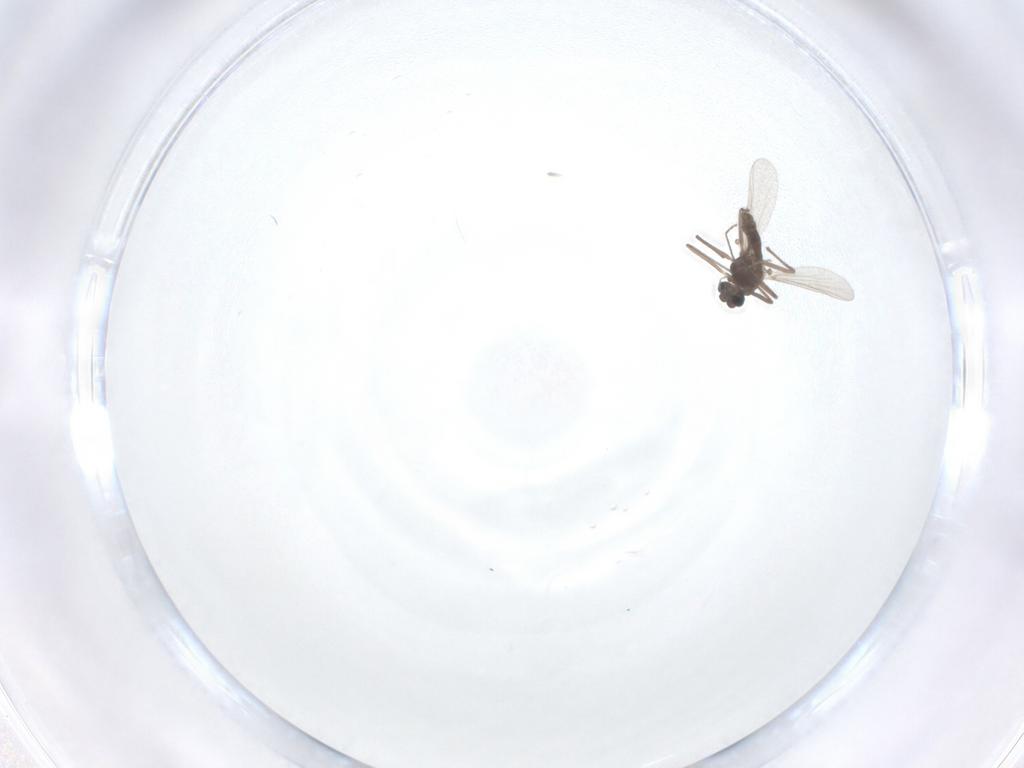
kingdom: Animalia
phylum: Arthropoda
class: Insecta
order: Diptera
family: Chironomidae
